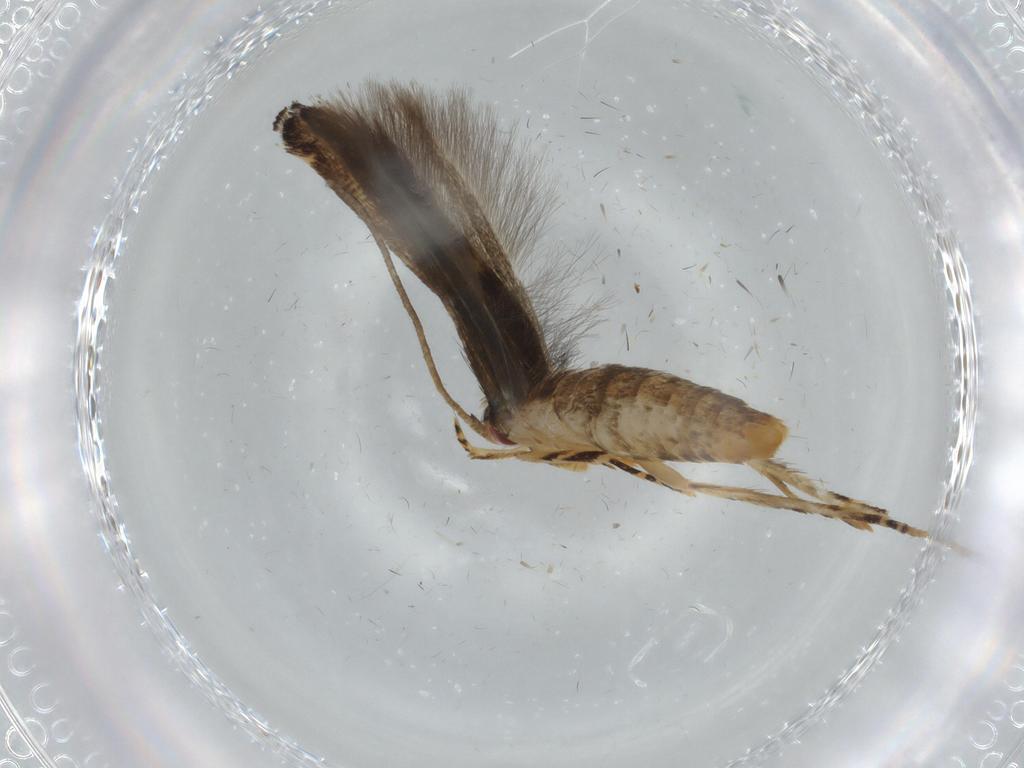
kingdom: Animalia
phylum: Arthropoda
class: Insecta
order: Lepidoptera
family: Momphidae
